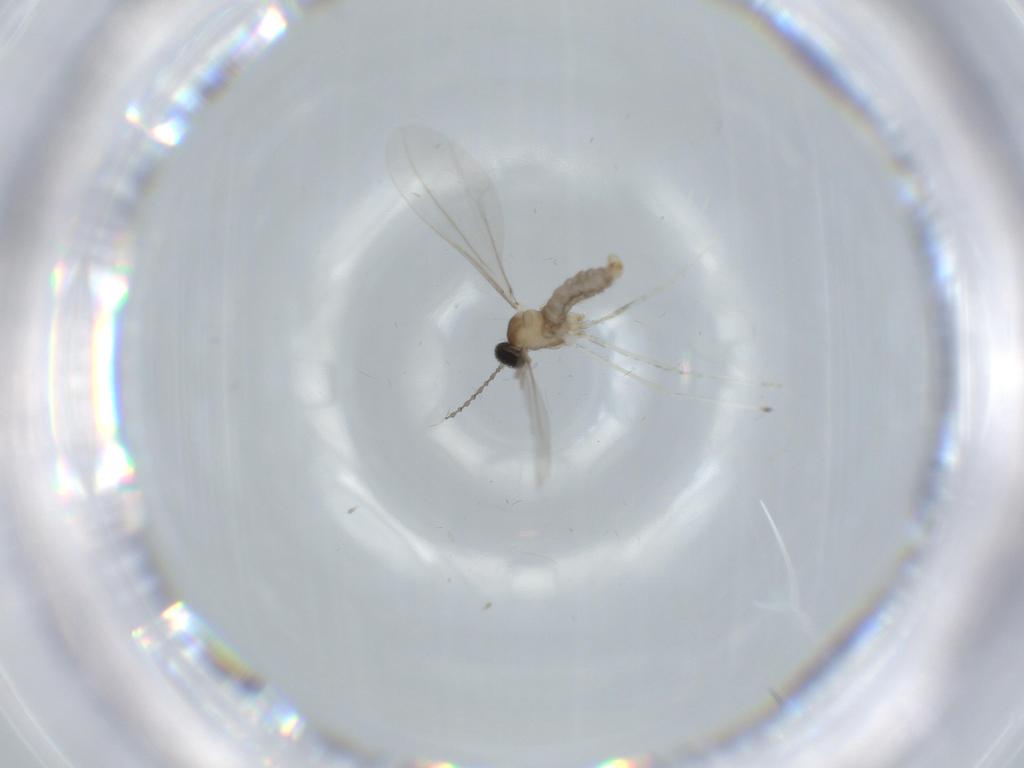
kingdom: Animalia
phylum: Arthropoda
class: Insecta
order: Diptera
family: Cecidomyiidae
